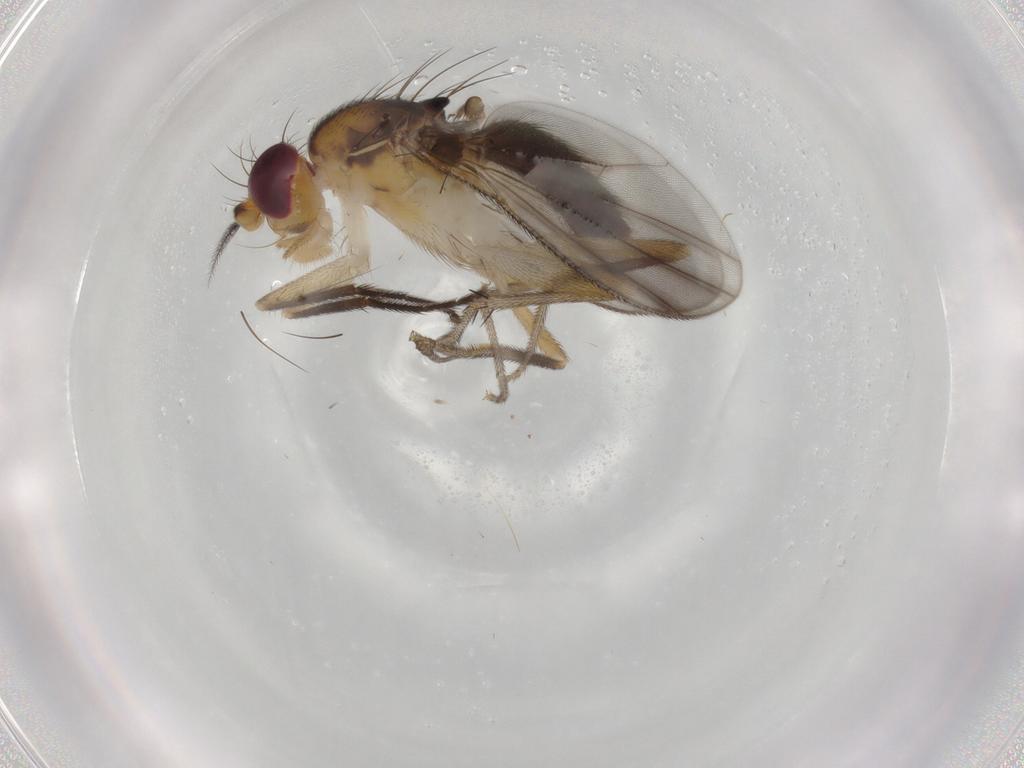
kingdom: Animalia
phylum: Arthropoda
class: Insecta
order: Diptera
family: Clusiidae
